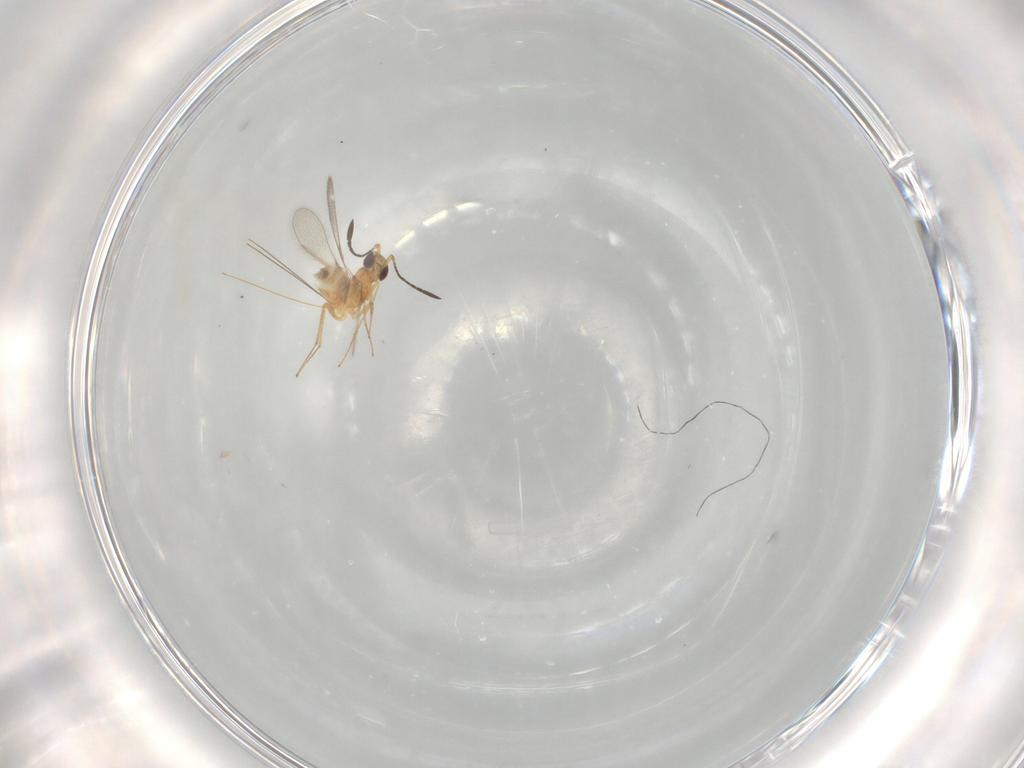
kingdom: Animalia
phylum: Arthropoda
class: Insecta
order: Hymenoptera
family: Mymaridae
